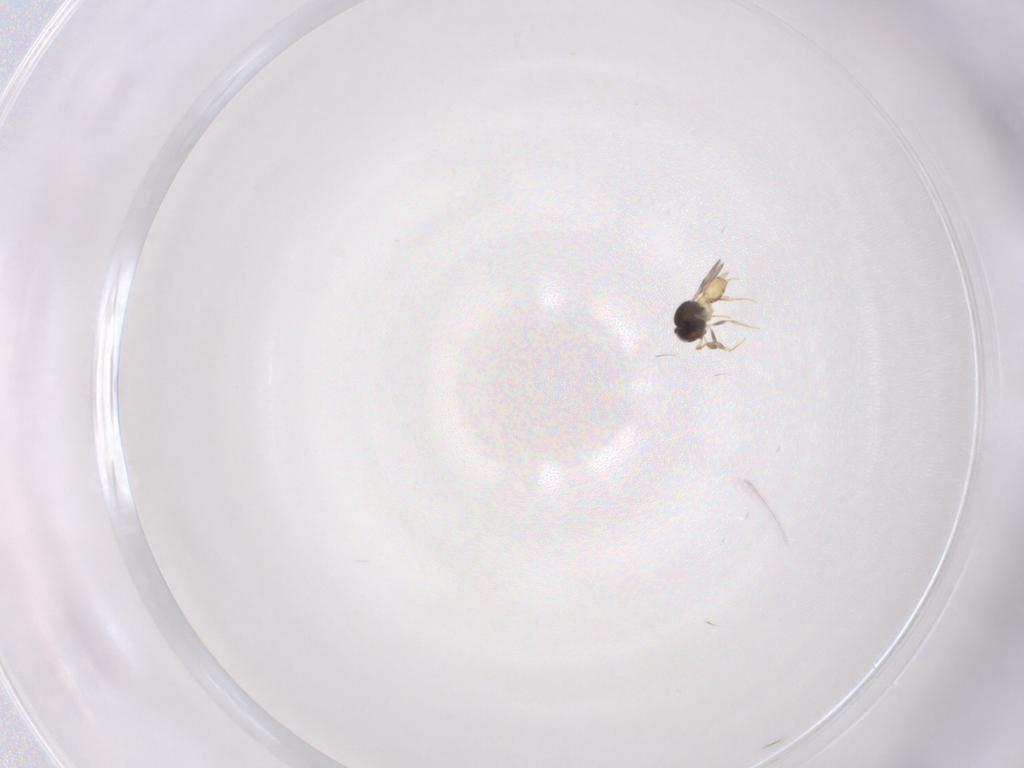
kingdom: Animalia
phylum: Arthropoda
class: Insecta
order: Hymenoptera
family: Scelionidae
